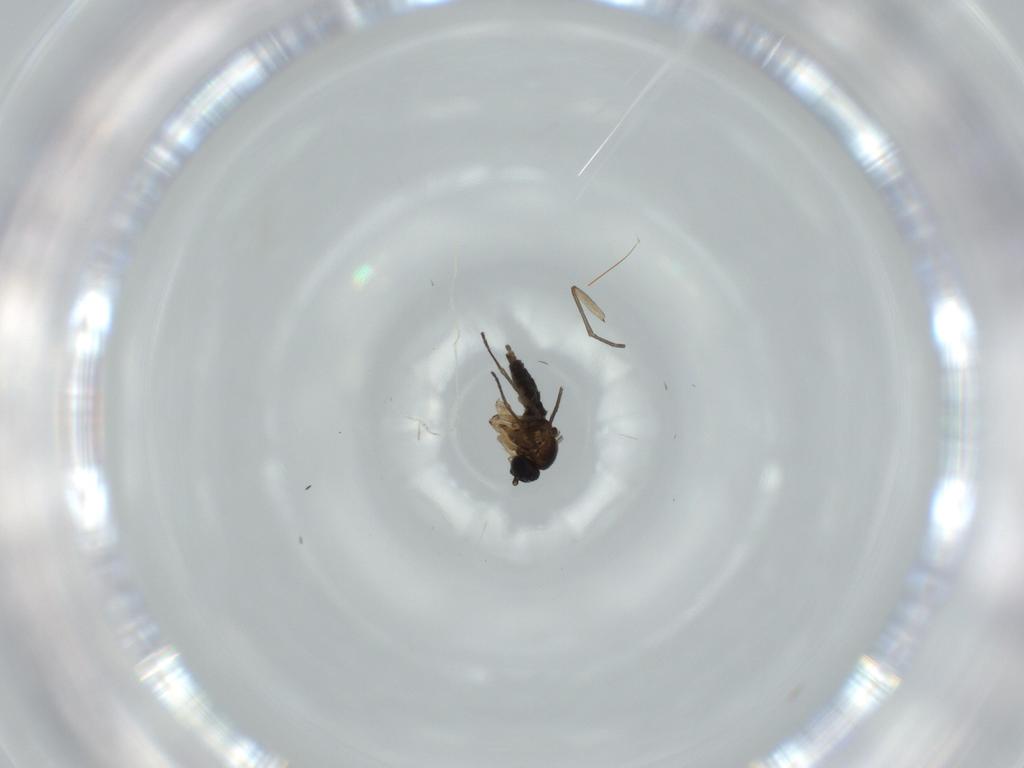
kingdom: Animalia
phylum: Arthropoda
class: Insecta
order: Diptera
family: Sciaridae
